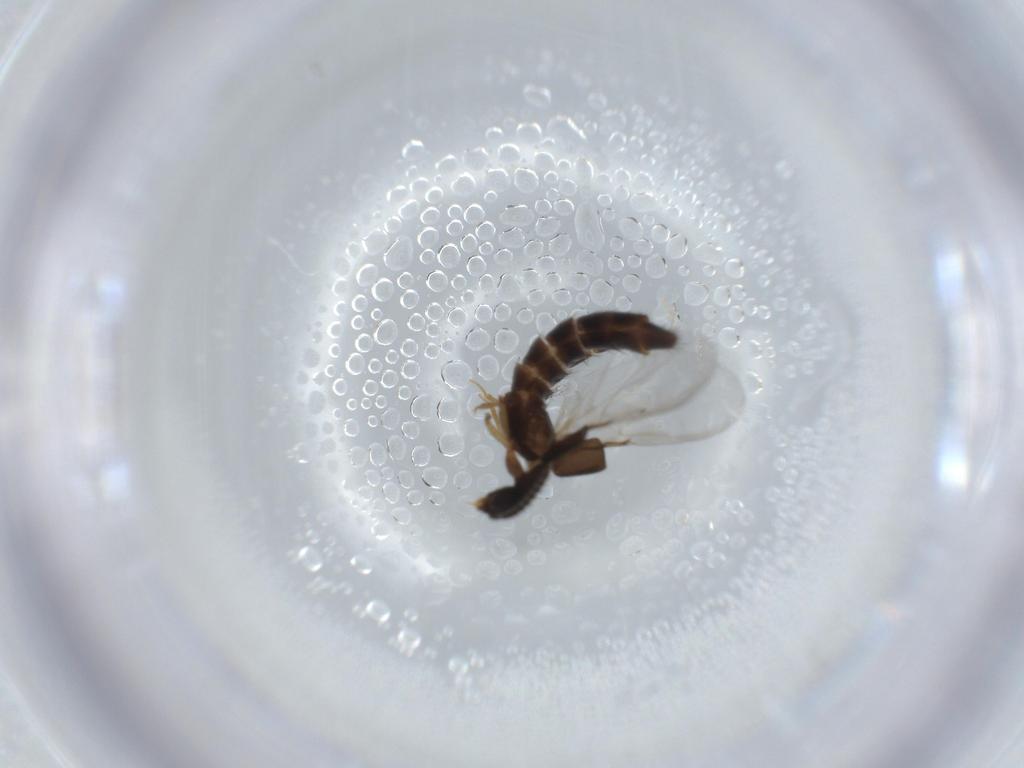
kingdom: Animalia
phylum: Arthropoda
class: Insecta
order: Coleoptera
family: Staphylinidae
